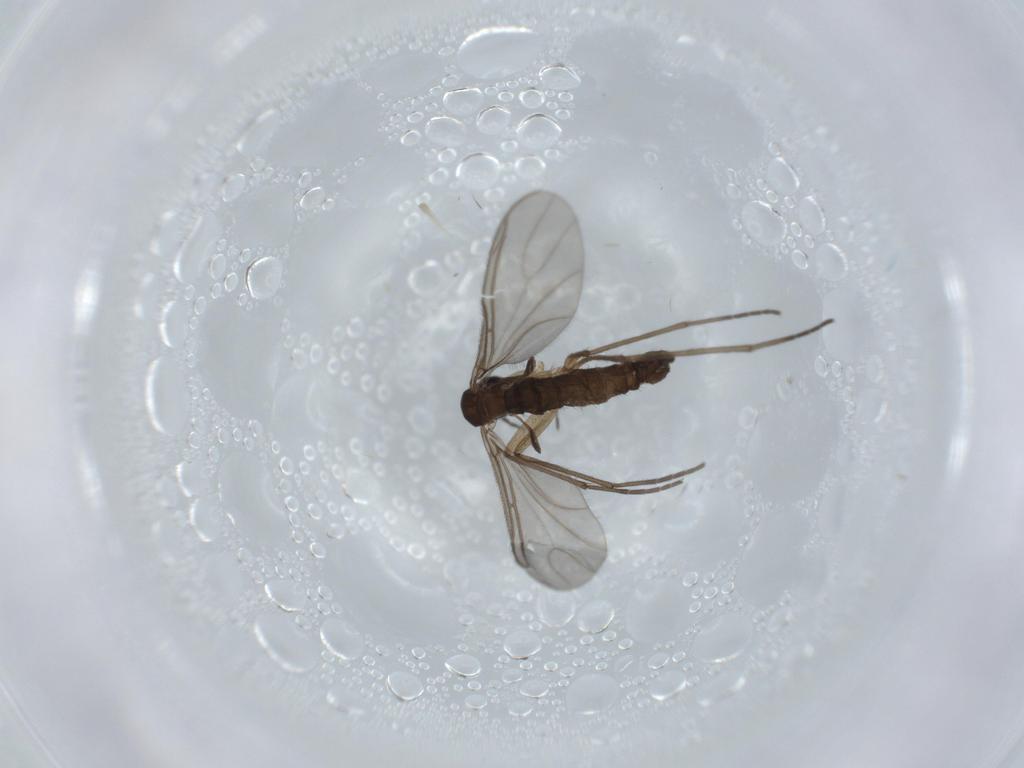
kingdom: Animalia
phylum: Arthropoda
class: Insecta
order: Diptera
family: Sciaridae
